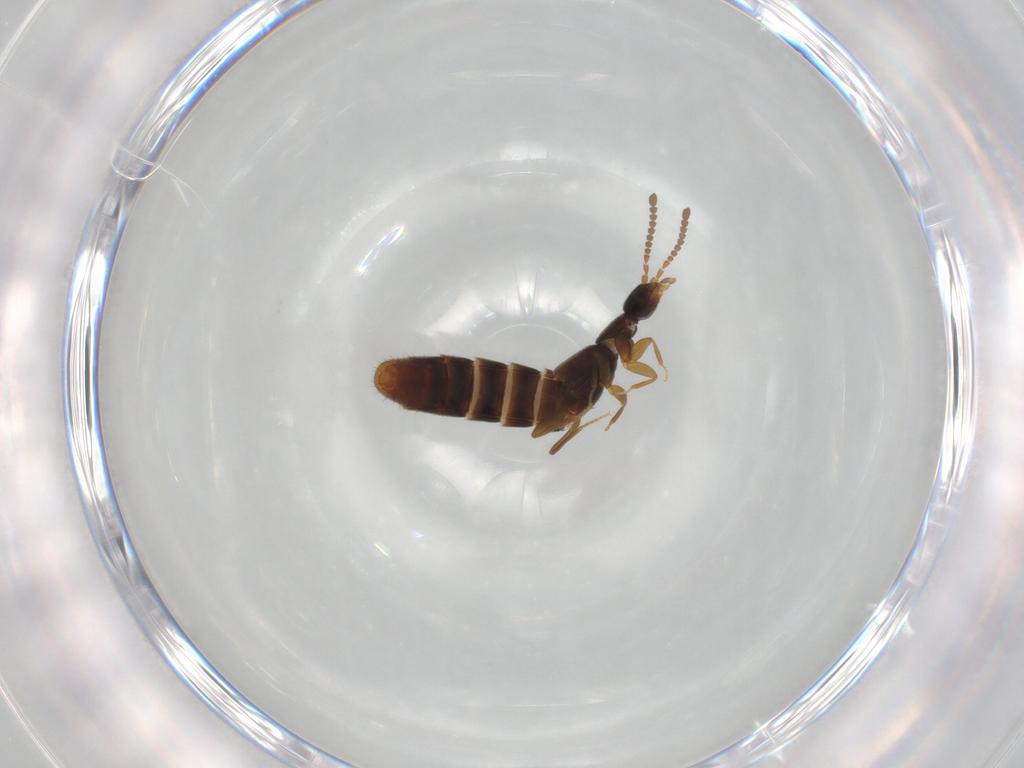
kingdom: Animalia
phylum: Arthropoda
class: Insecta
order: Coleoptera
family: Staphylinidae
